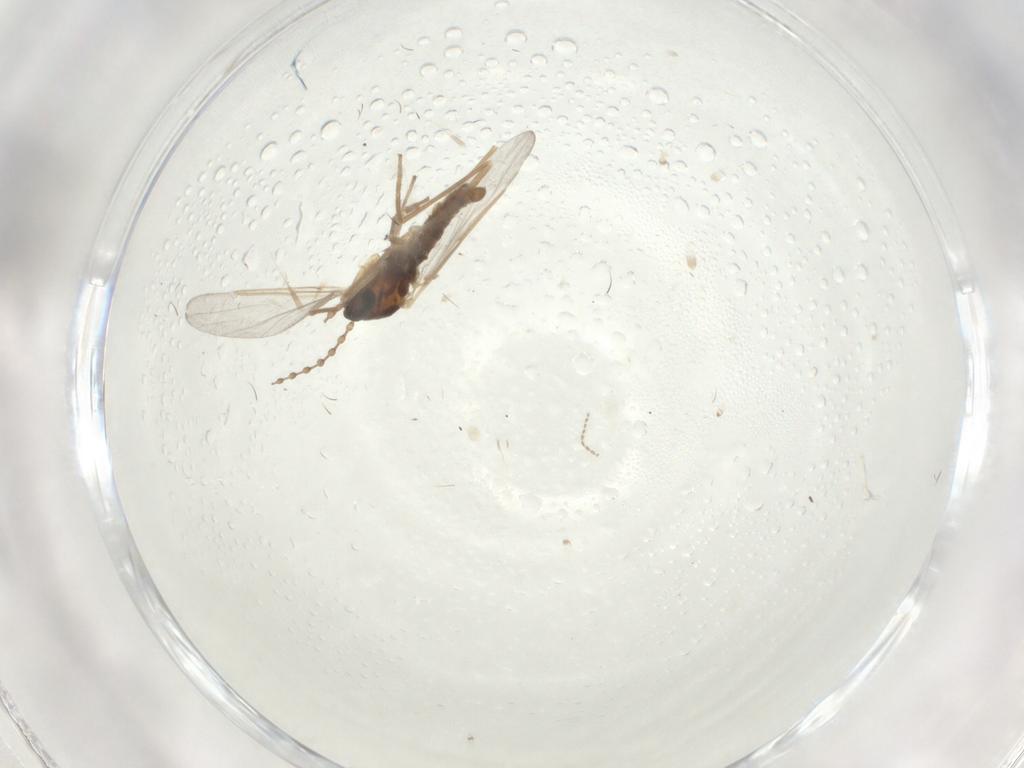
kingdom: Animalia
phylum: Arthropoda
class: Insecta
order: Diptera
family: Cecidomyiidae
